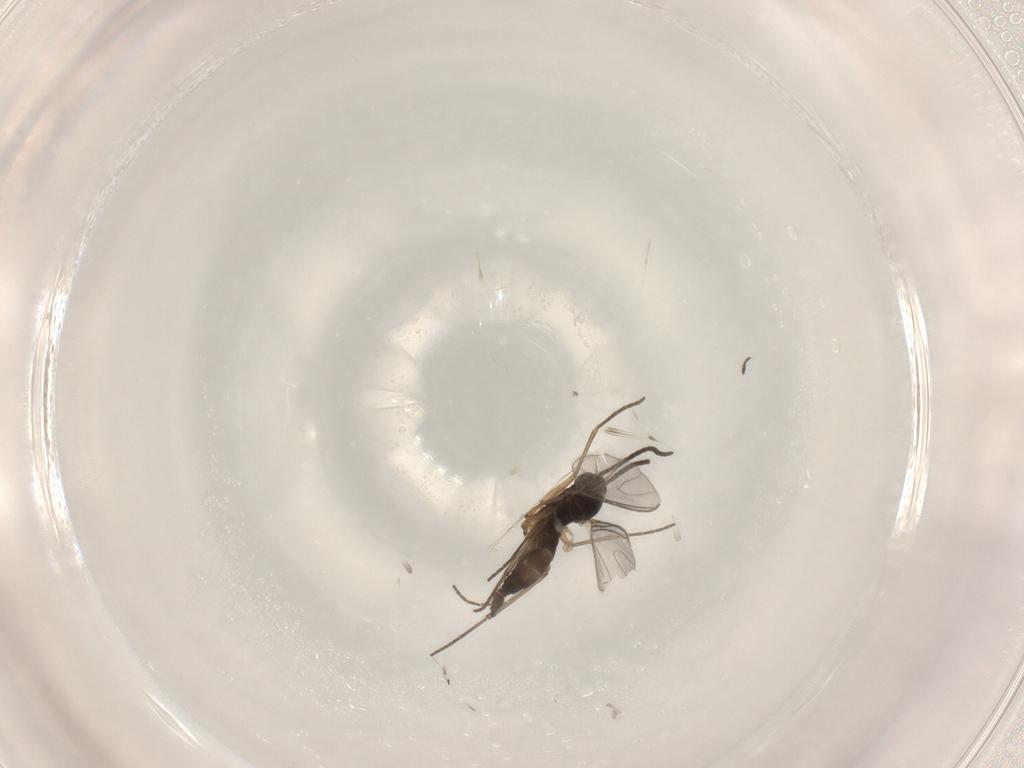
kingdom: Animalia
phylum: Arthropoda
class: Insecta
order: Diptera
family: Sciaridae
